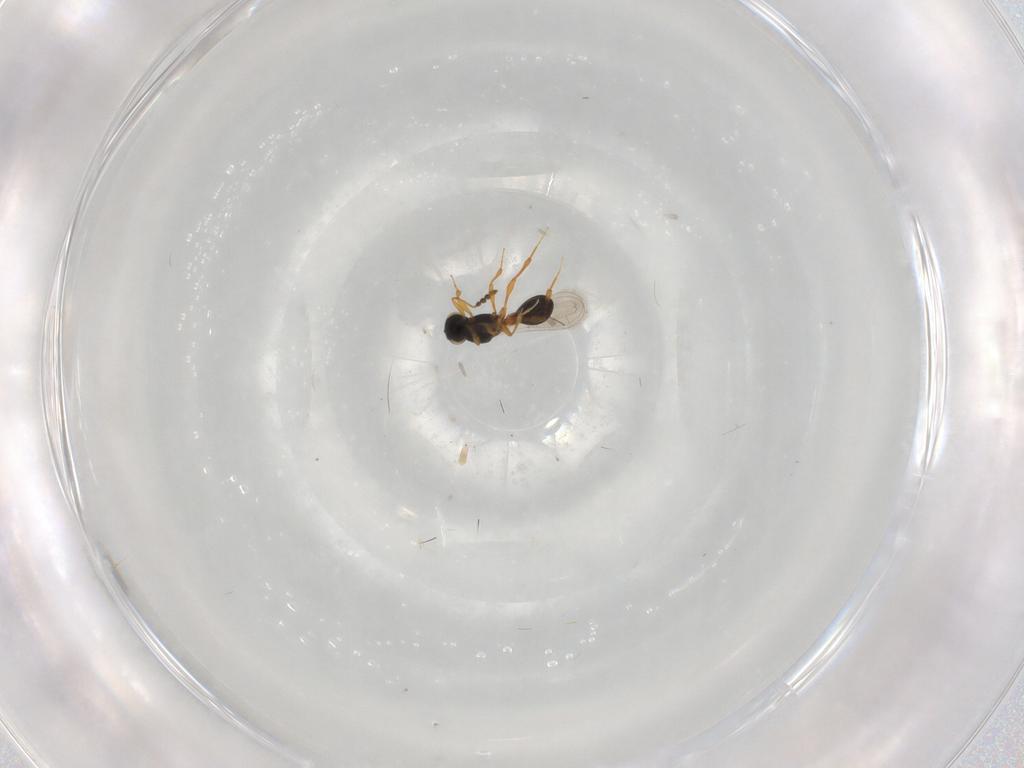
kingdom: Animalia
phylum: Arthropoda
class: Insecta
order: Hymenoptera
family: Platygastridae
